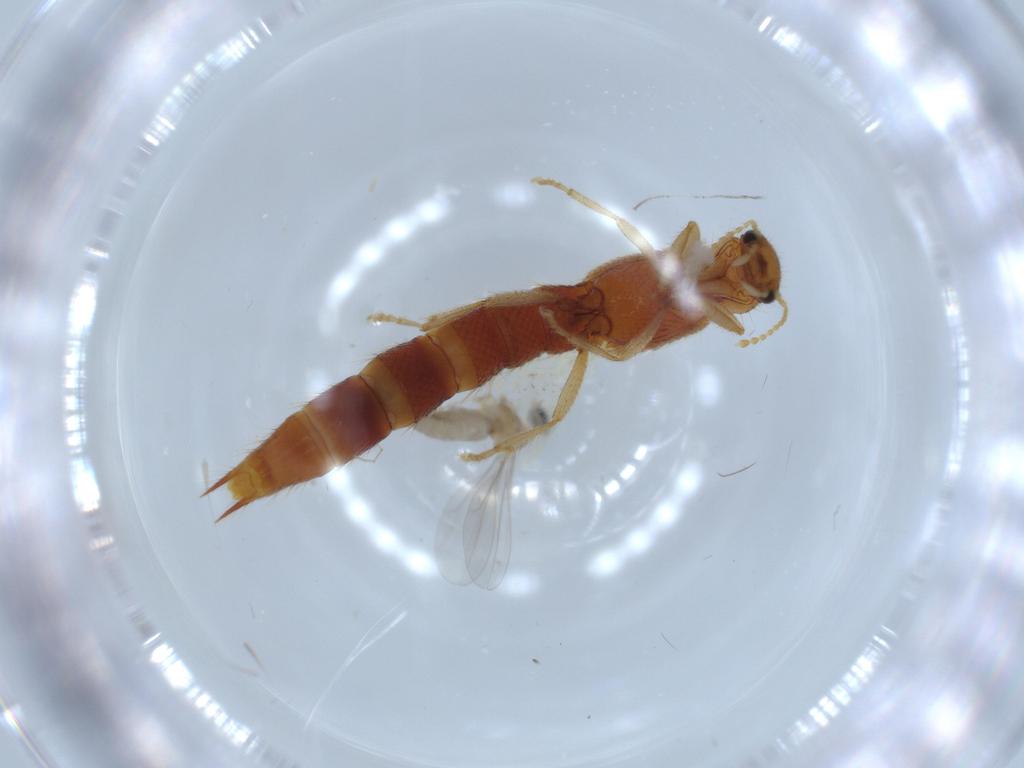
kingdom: Animalia
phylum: Arthropoda
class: Insecta
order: Coleoptera
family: Staphylinidae
